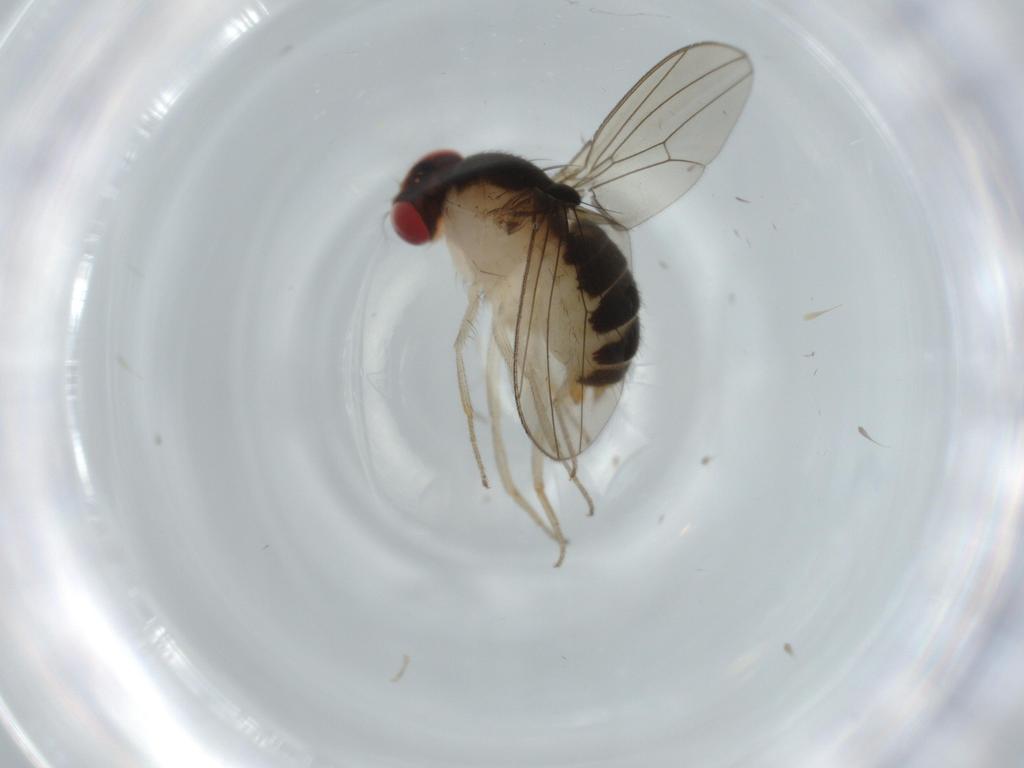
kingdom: Animalia
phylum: Arthropoda
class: Insecta
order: Diptera
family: Drosophilidae
